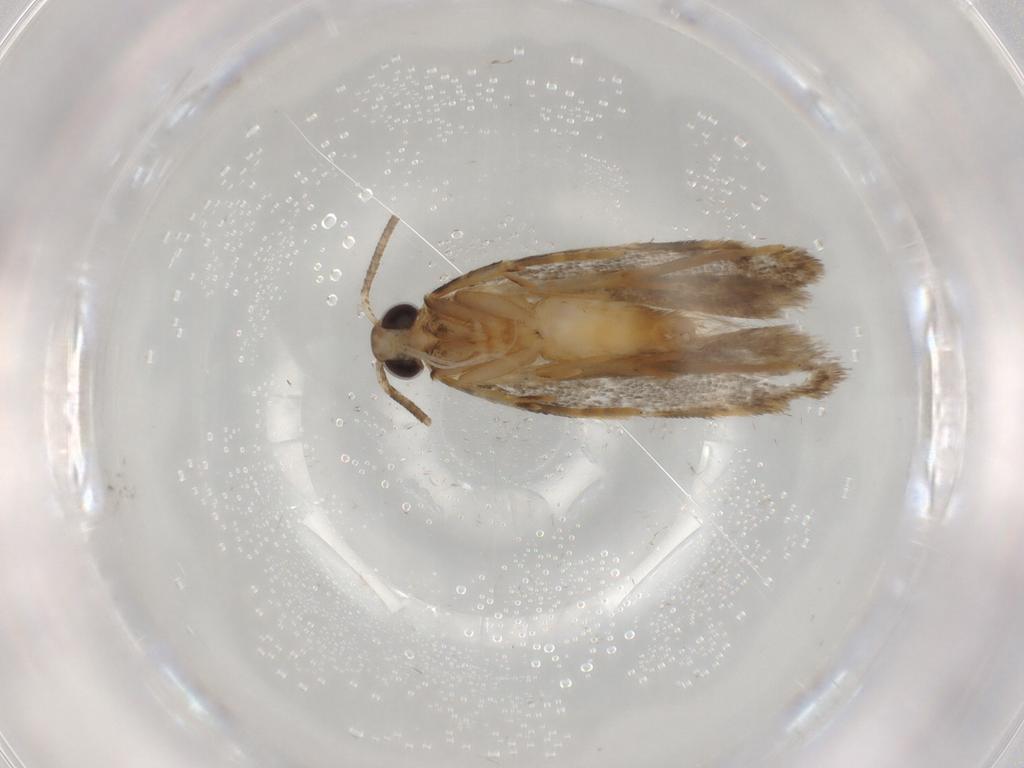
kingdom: Animalia
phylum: Arthropoda
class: Insecta
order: Lepidoptera
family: Autostichidae
